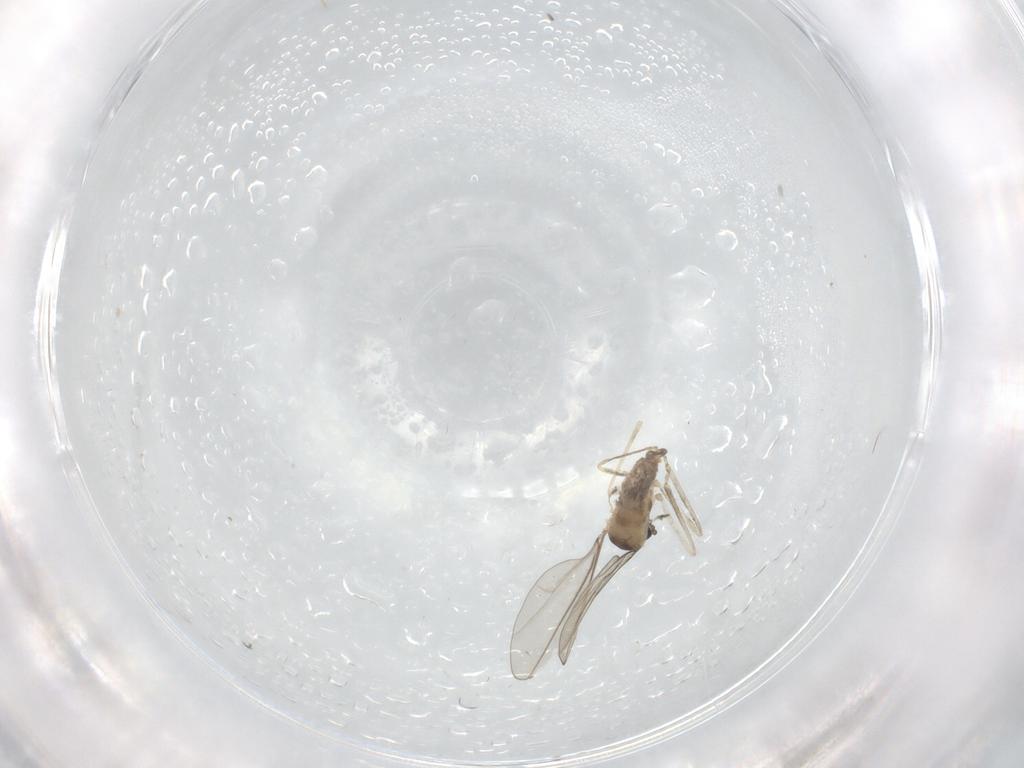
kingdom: Animalia
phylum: Arthropoda
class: Insecta
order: Diptera
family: Cecidomyiidae
